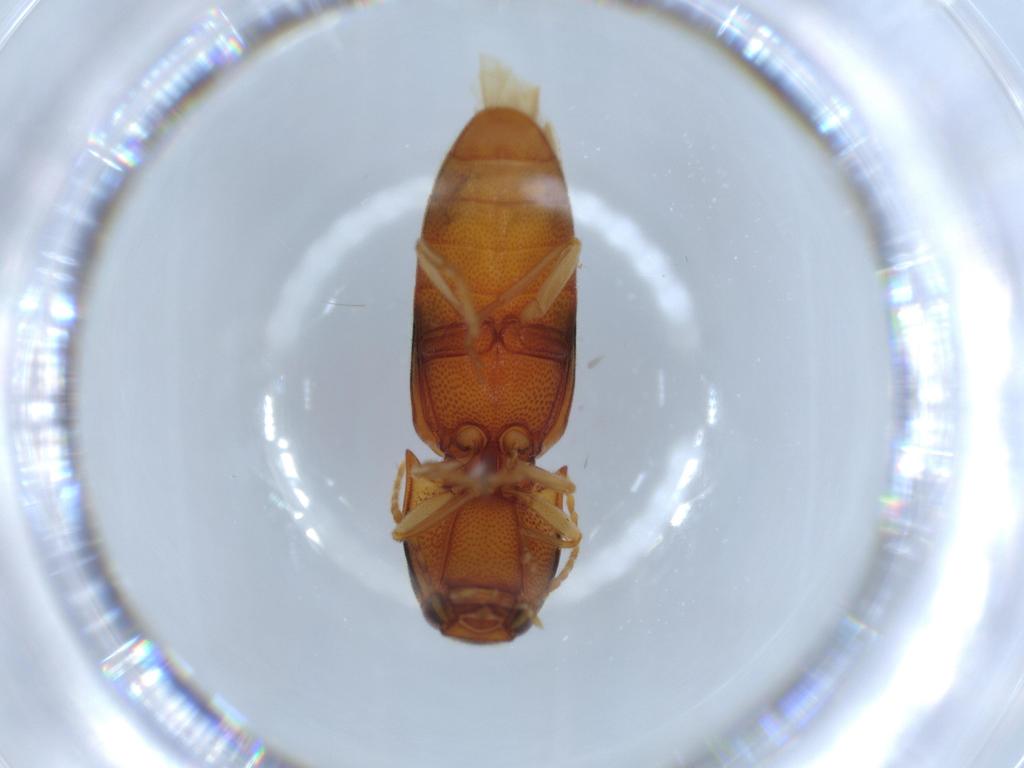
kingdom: Animalia
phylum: Arthropoda
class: Insecta
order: Coleoptera
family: Elateridae
